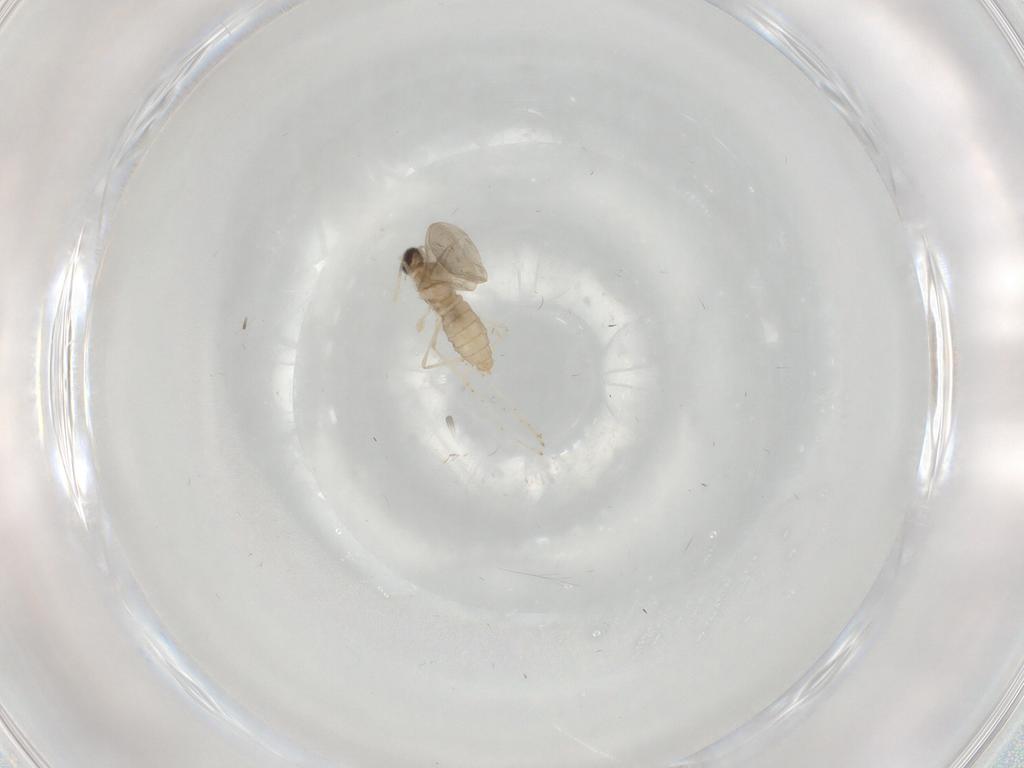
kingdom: Animalia
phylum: Arthropoda
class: Insecta
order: Diptera
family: Cecidomyiidae
